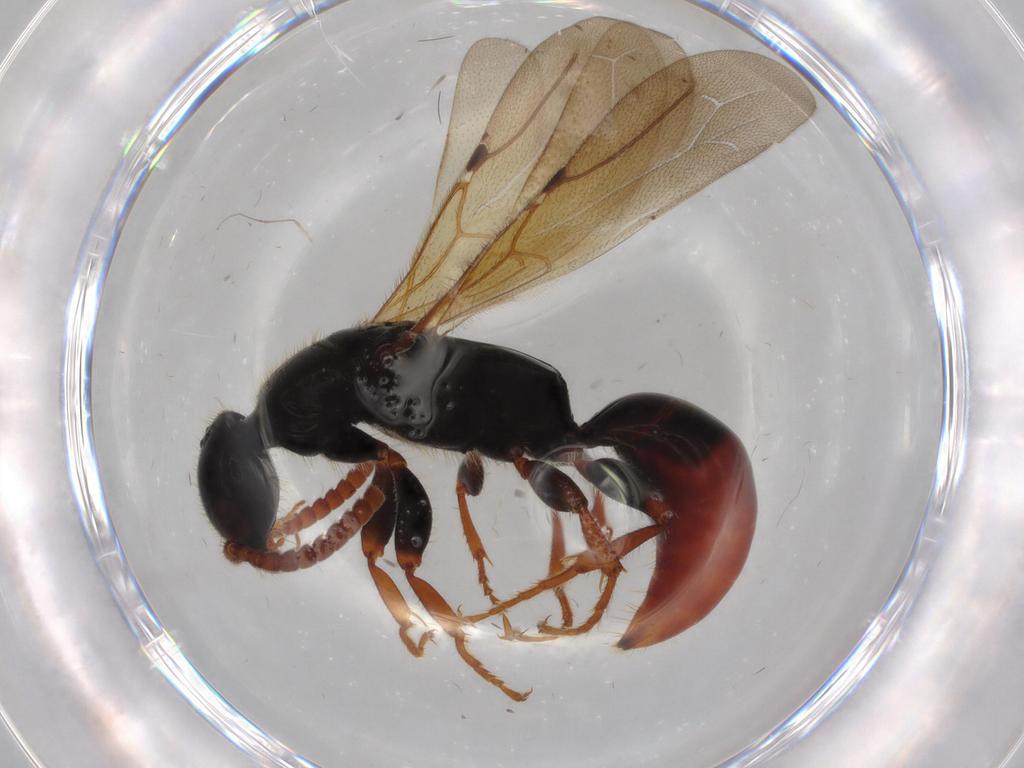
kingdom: Animalia
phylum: Arthropoda
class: Insecta
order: Hymenoptera
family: Bethylidae
